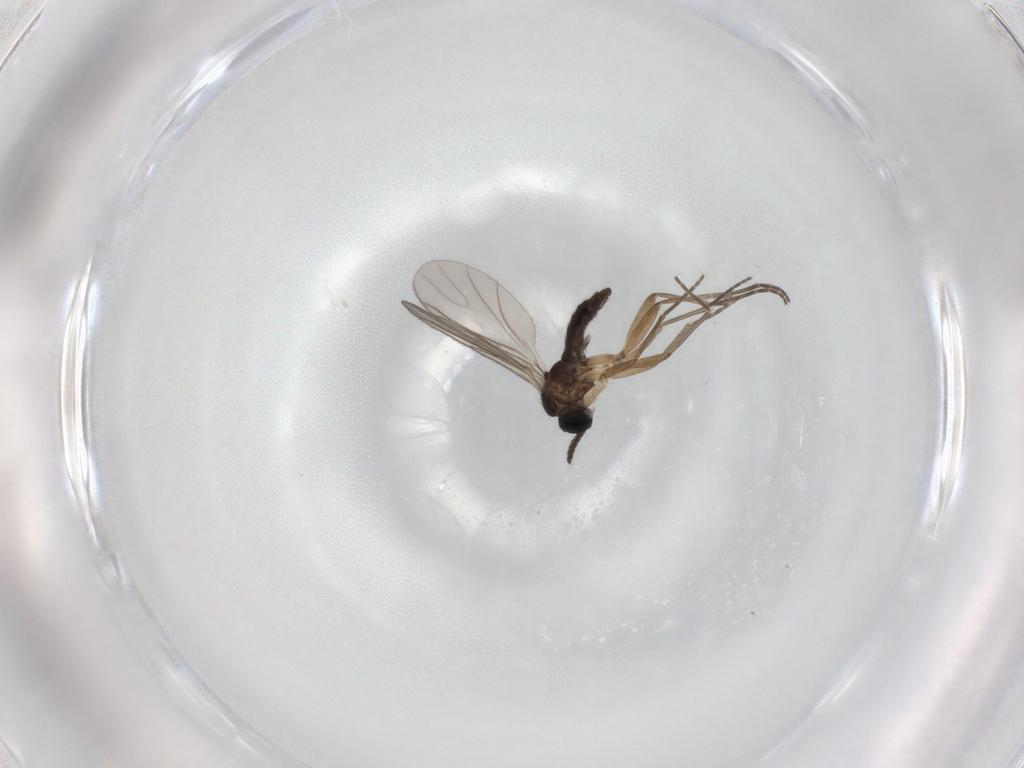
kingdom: Animalia
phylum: Arthropoda
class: Insecta
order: Diptera
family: Sciaridae
